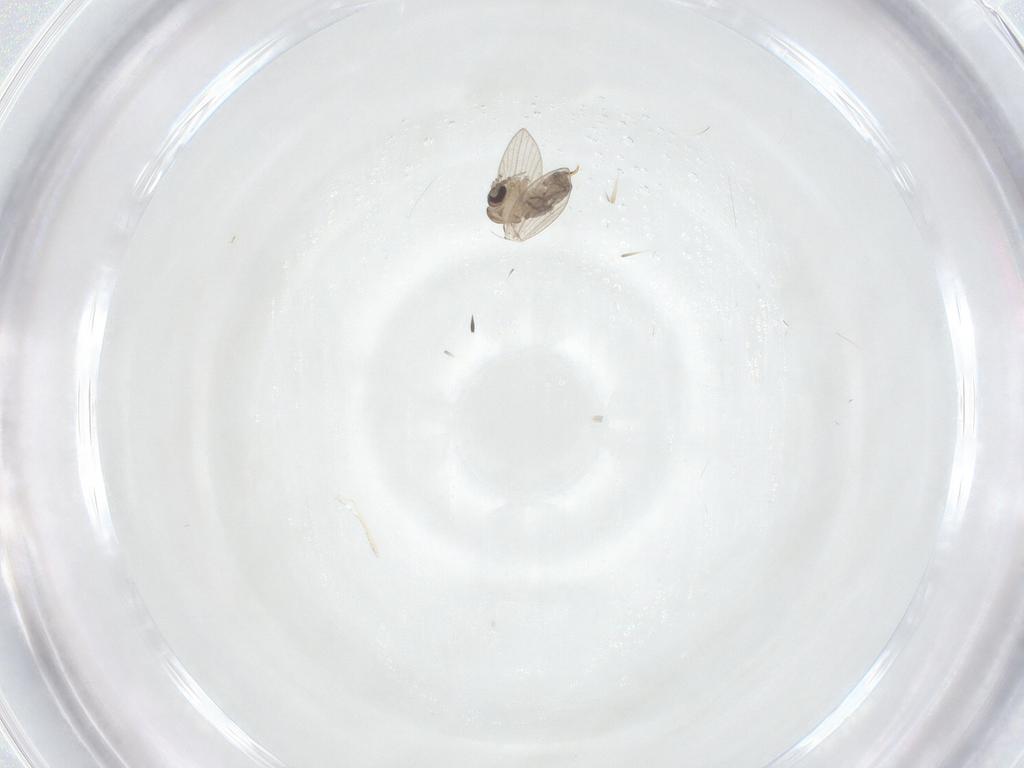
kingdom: Animalia
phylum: Arthropoda
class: Insecta
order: Diptera
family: Psychodidae
